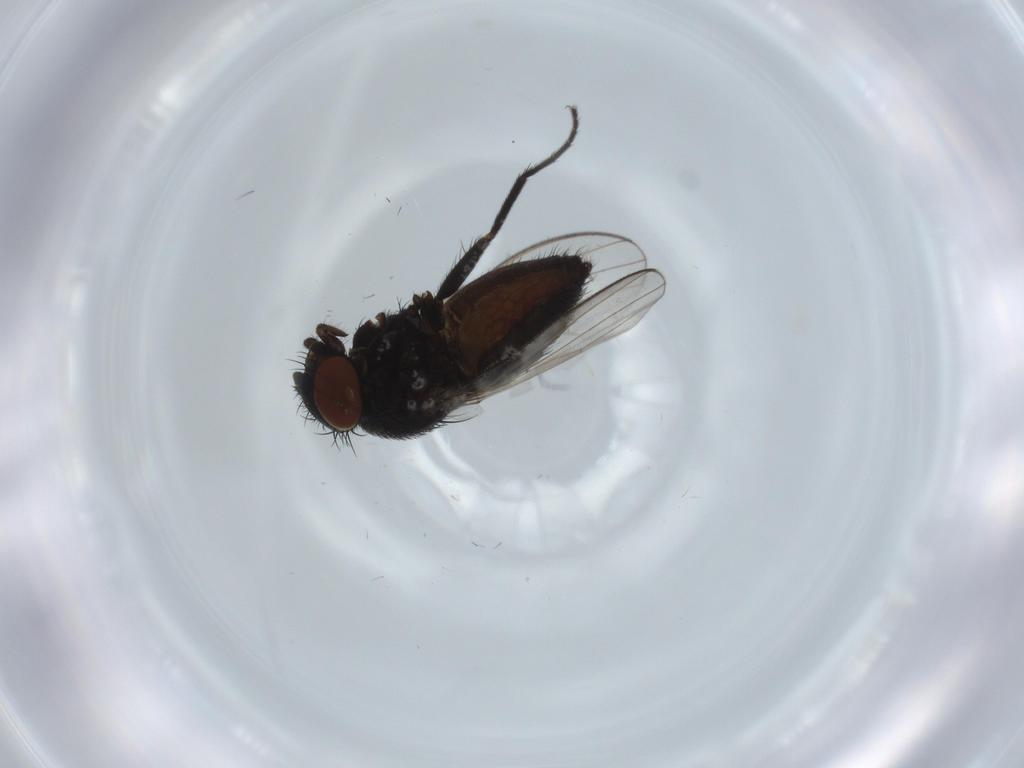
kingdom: Animalia
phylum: Arthropoda
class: Insecta
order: Diptera
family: Milichiidae
